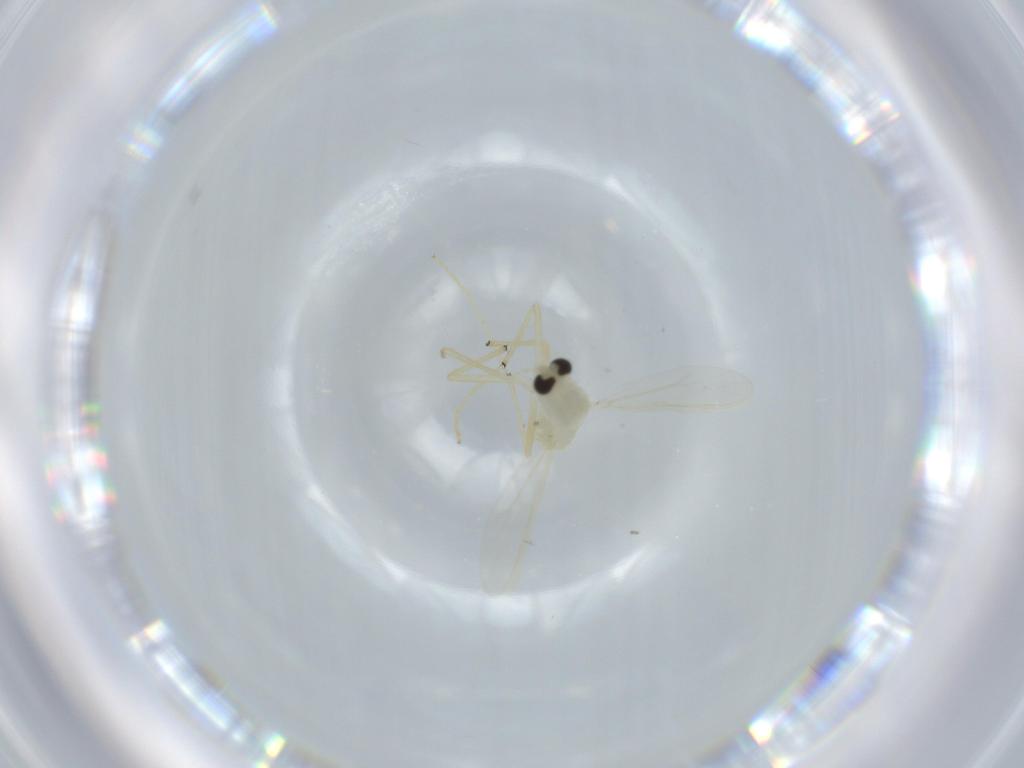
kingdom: Animalia
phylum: Arthropoda
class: Insecta
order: Diptera
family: Chironomidae
